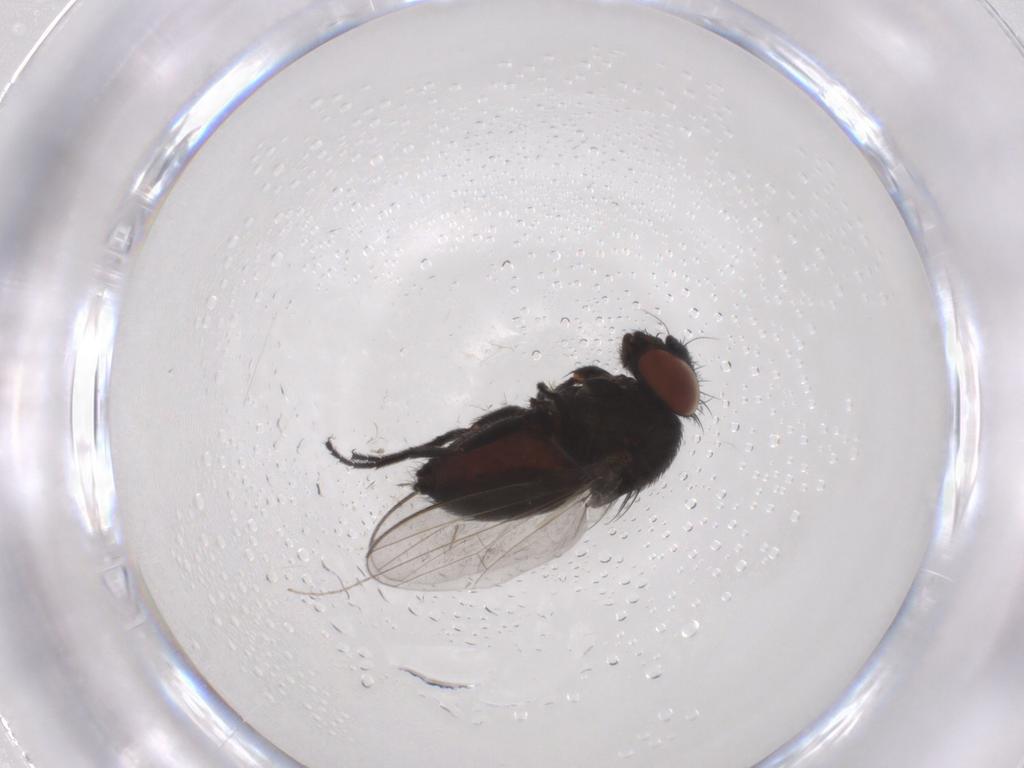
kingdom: Animalia
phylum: Arthropoda
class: Insecta
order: Diptera
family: Milichiidae
